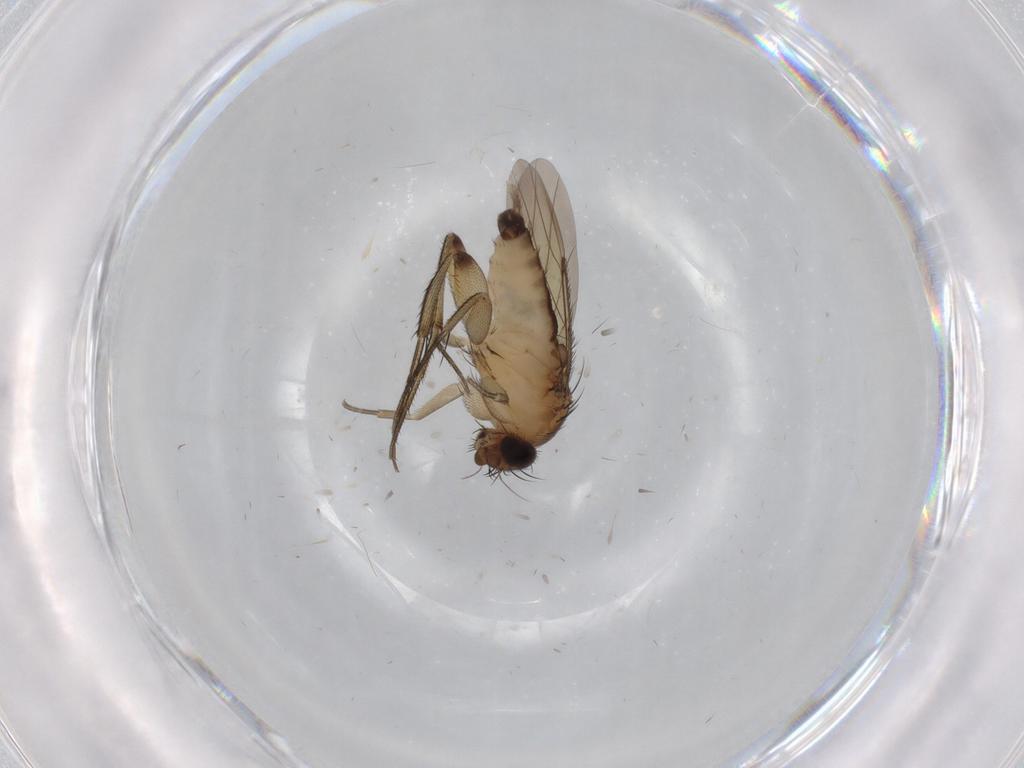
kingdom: Animalia
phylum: Arthropoda
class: Insecta
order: Diptera
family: Phoridae
